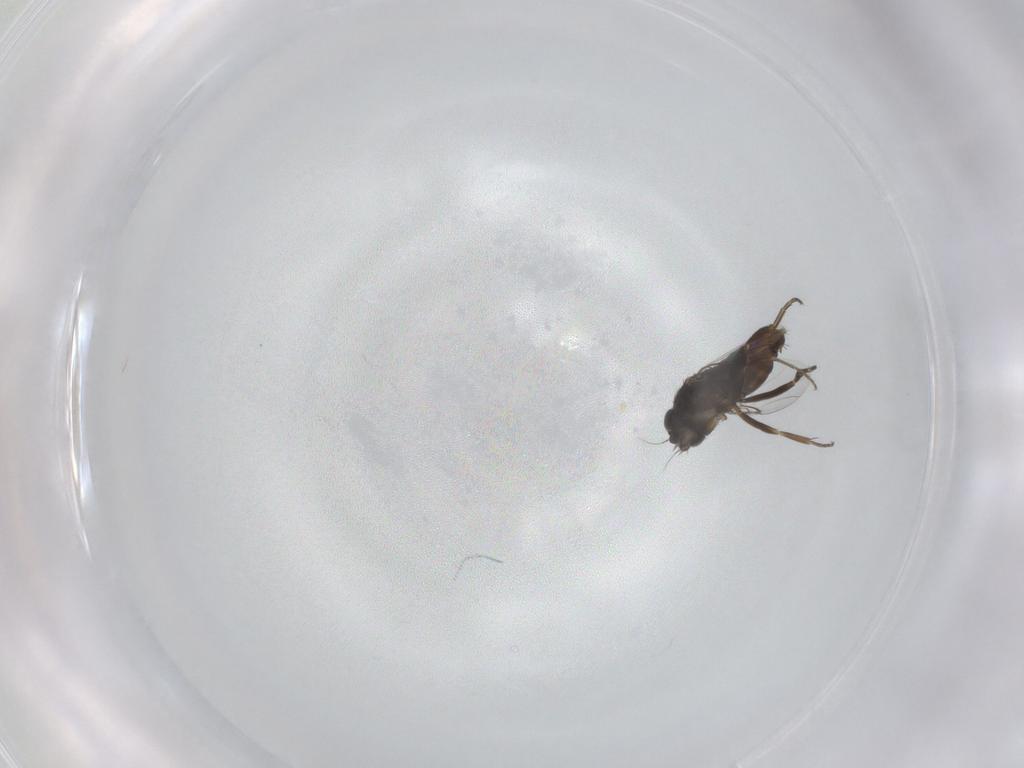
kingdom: Animalia
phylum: Arthropoda
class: Insecta
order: Diptera
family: Phoridae
